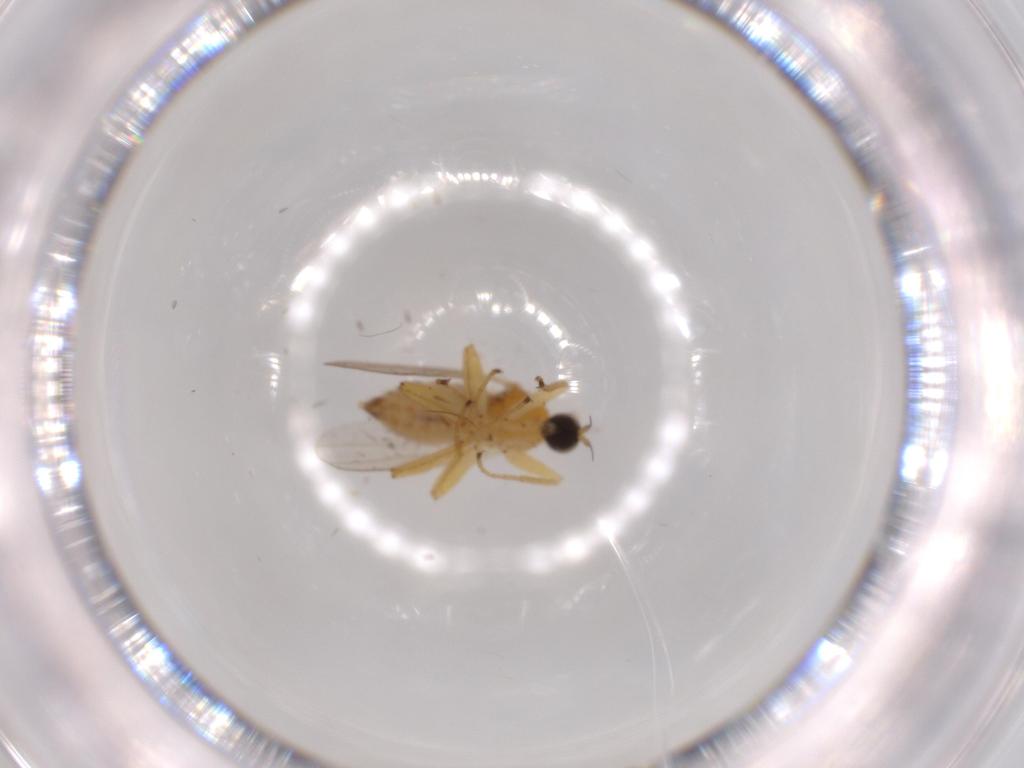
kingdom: Animalia
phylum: Arthropoda
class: Insecta
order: Diptera
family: Hybotidae
